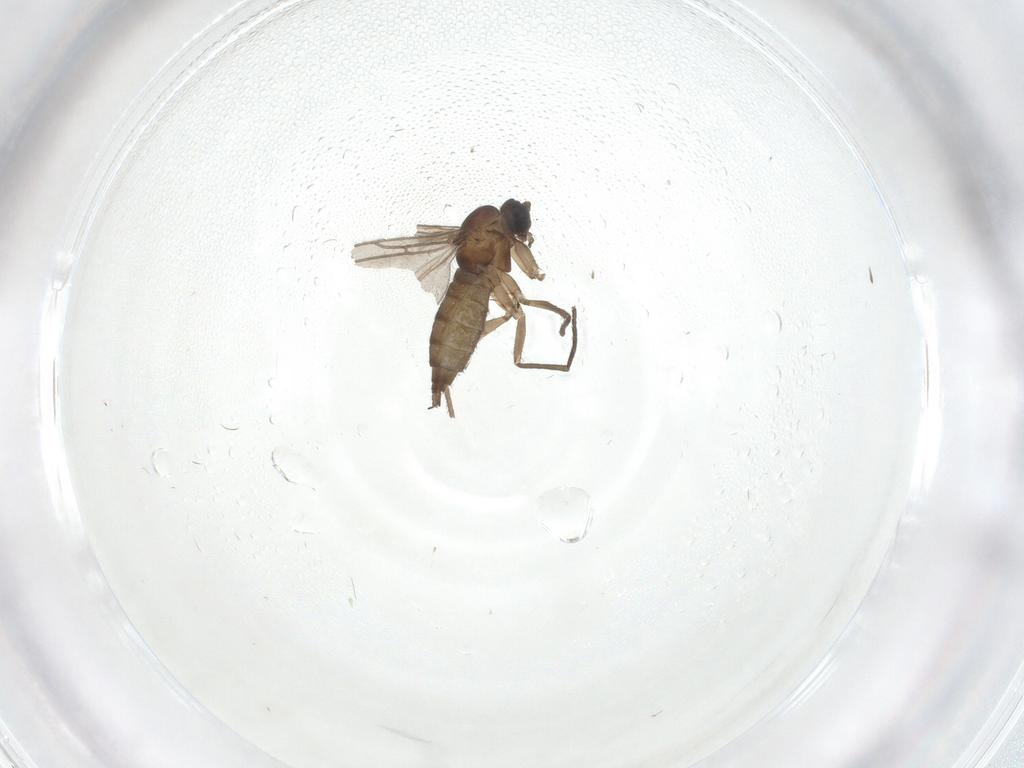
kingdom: Animalia
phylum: Arthropoda
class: Insecta
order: Diptera
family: Sciaridae
